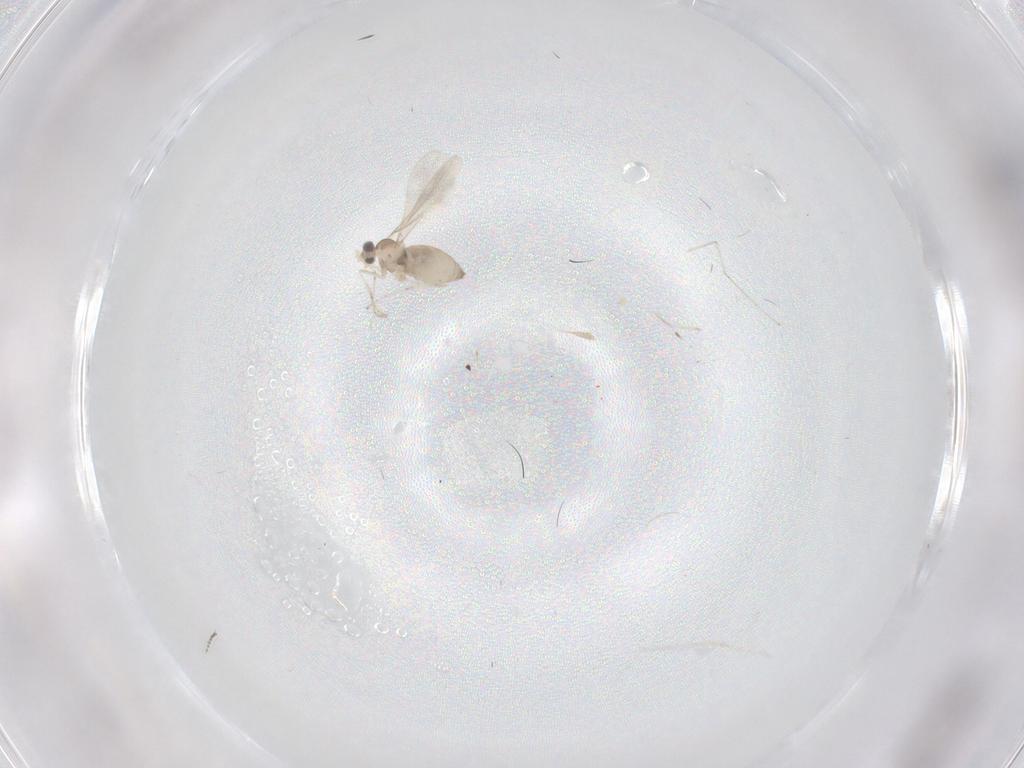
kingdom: Animalia
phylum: Arthropoda
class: Insecta
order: Diptera
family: Cecidomyiidae
